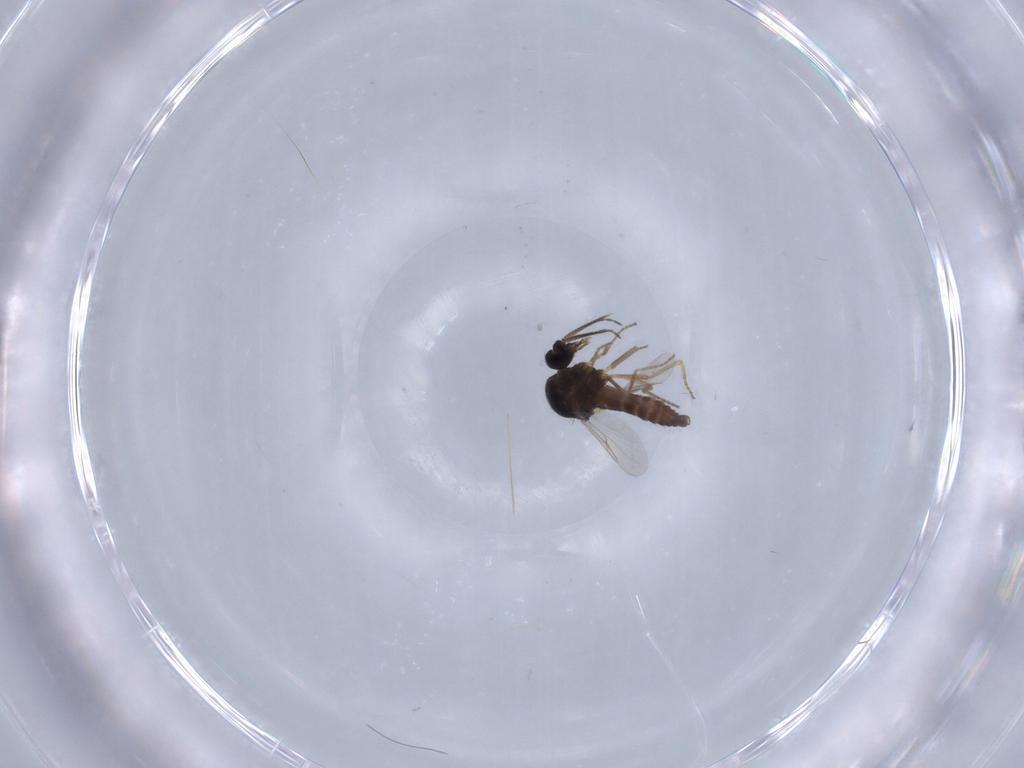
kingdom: Animalia
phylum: Arthropoda
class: Insecta
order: Diptera
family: Ceratopogonidae
